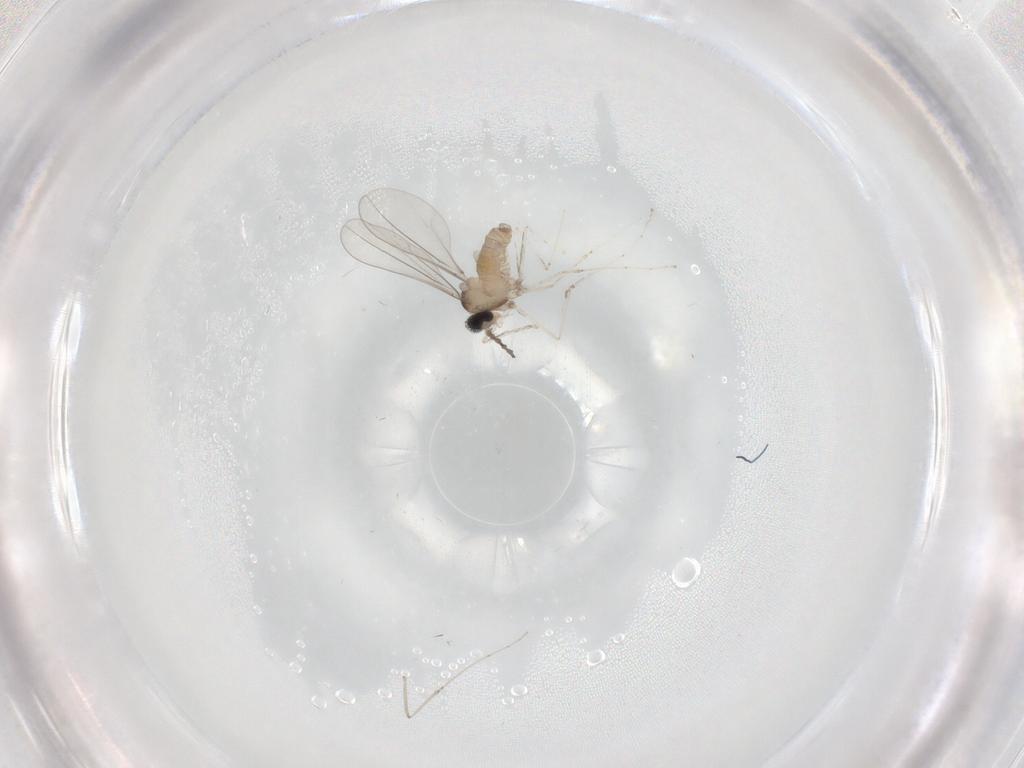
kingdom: Animalia
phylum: Arthropoda
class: Insecta
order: Diptera
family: Cecidomyiidae
